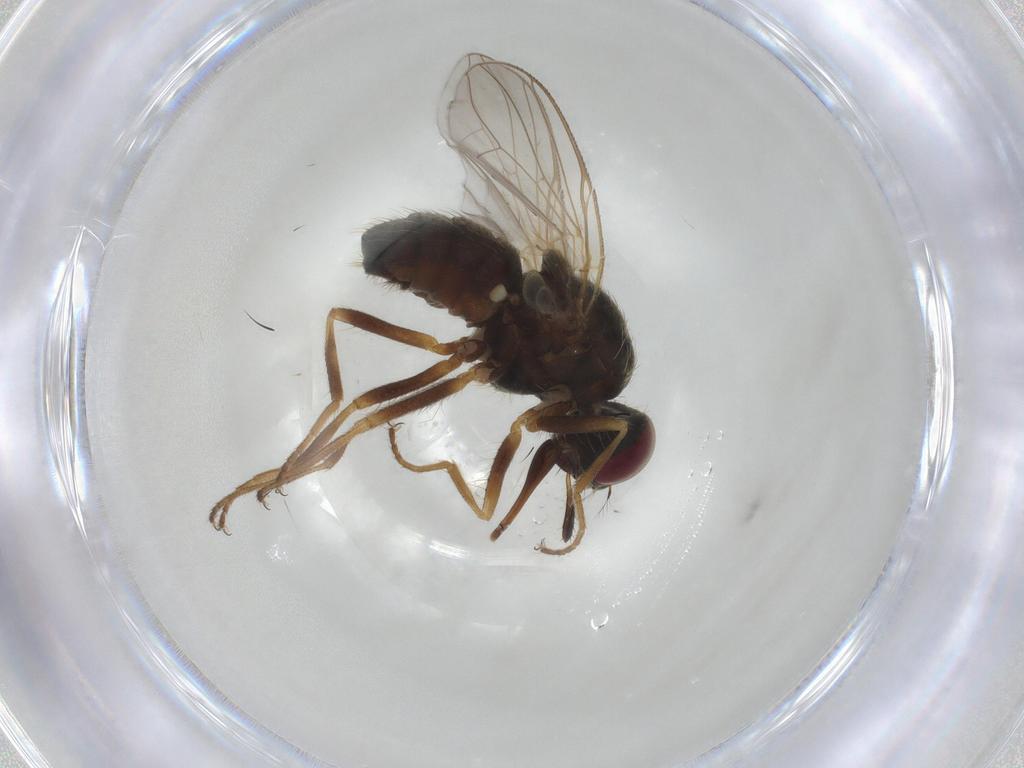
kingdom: Animalia
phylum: Arthropoda
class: Insecta
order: Diptera
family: Muscidae
